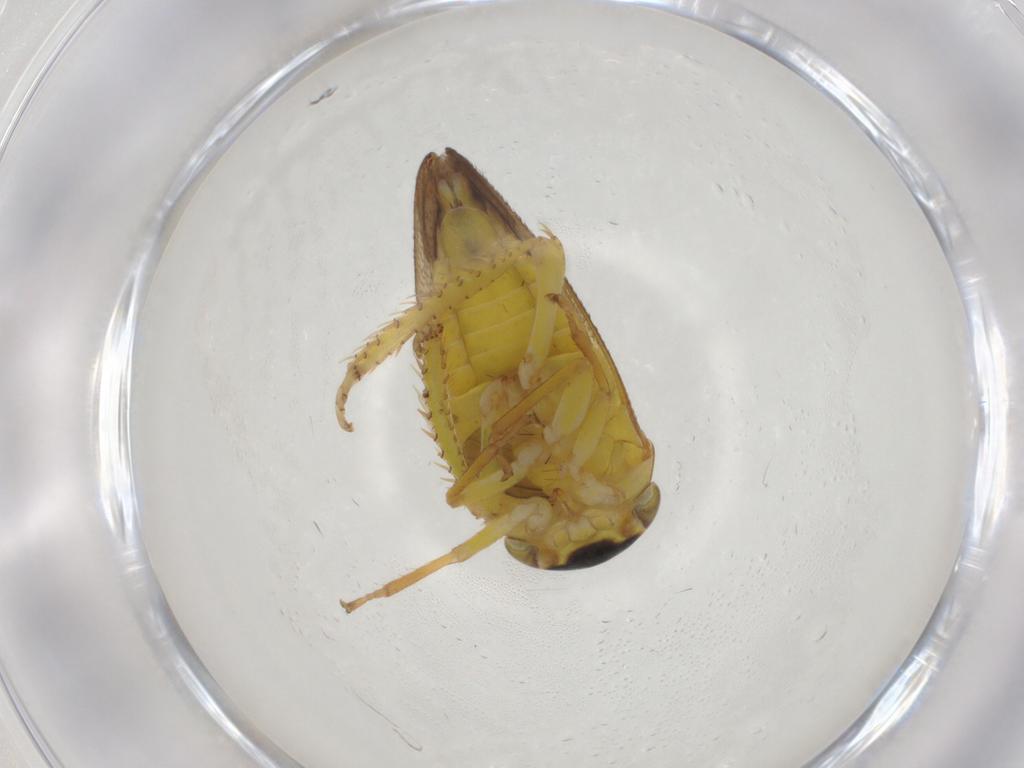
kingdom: Animalia
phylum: Arthropoda
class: Insecta
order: Hemiptera
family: Cicadellidae
